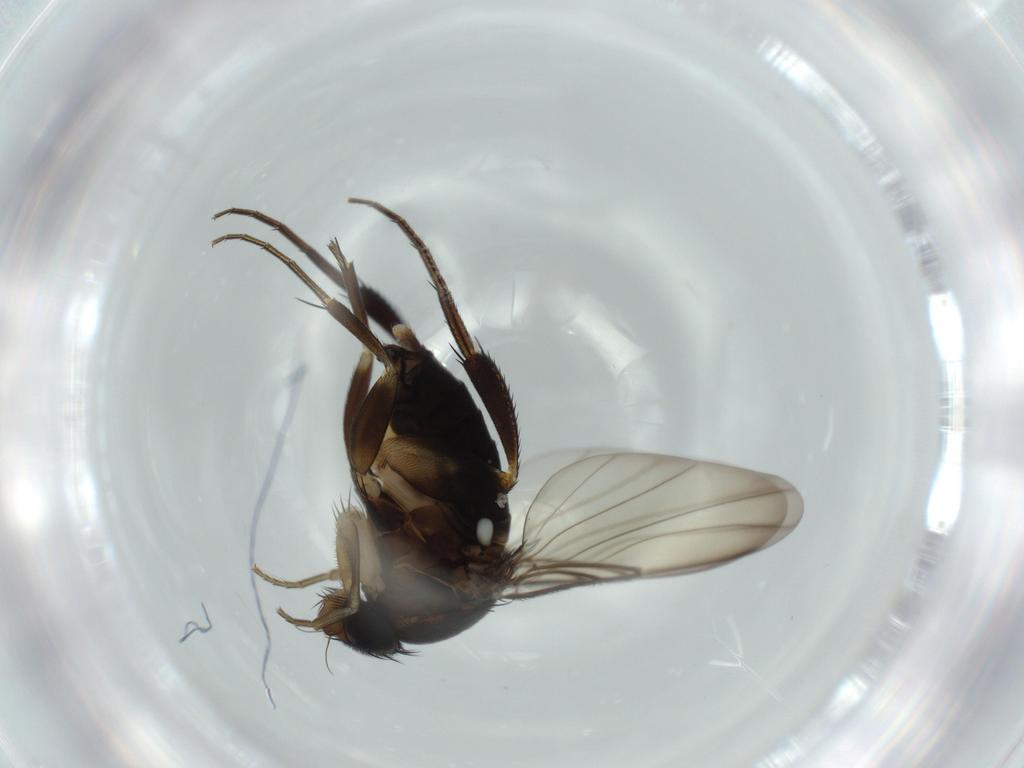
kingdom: Animalia
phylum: Arthropoda
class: Insecta
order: Diptera
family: Phoridae
